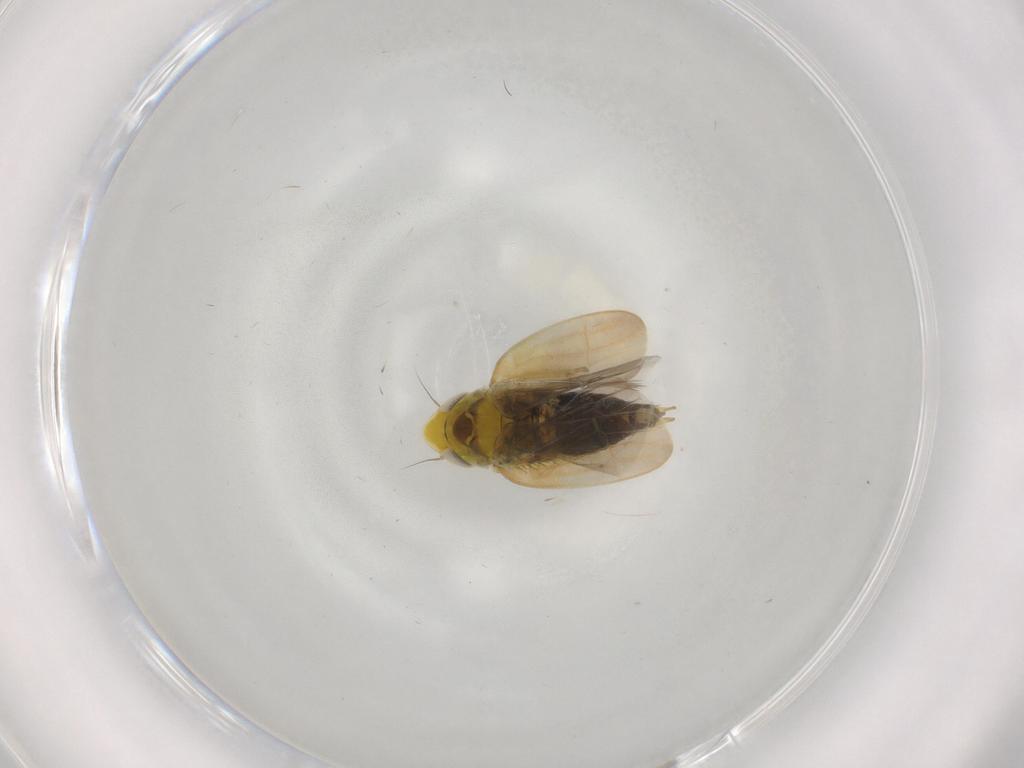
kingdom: Animalia
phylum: Arthropoda
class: Insecta
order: Hemiptera
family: Cicadellidae
